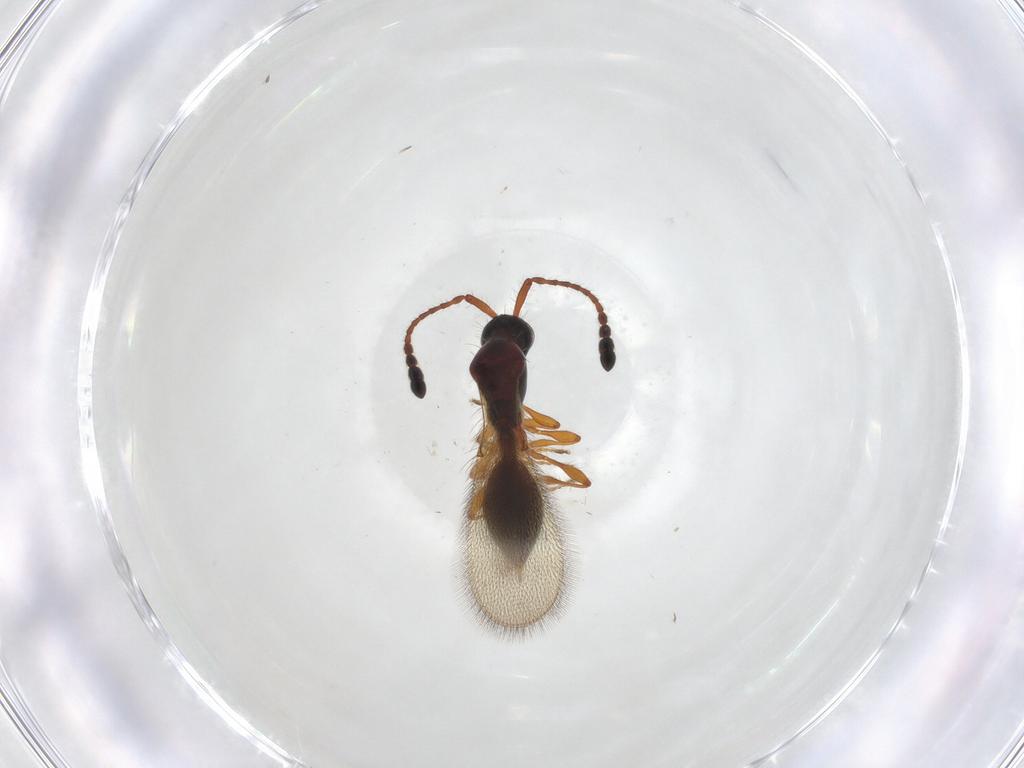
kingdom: Animalia
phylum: Arthropoda
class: Insecta
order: Hymenoptera
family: Diapriidae
